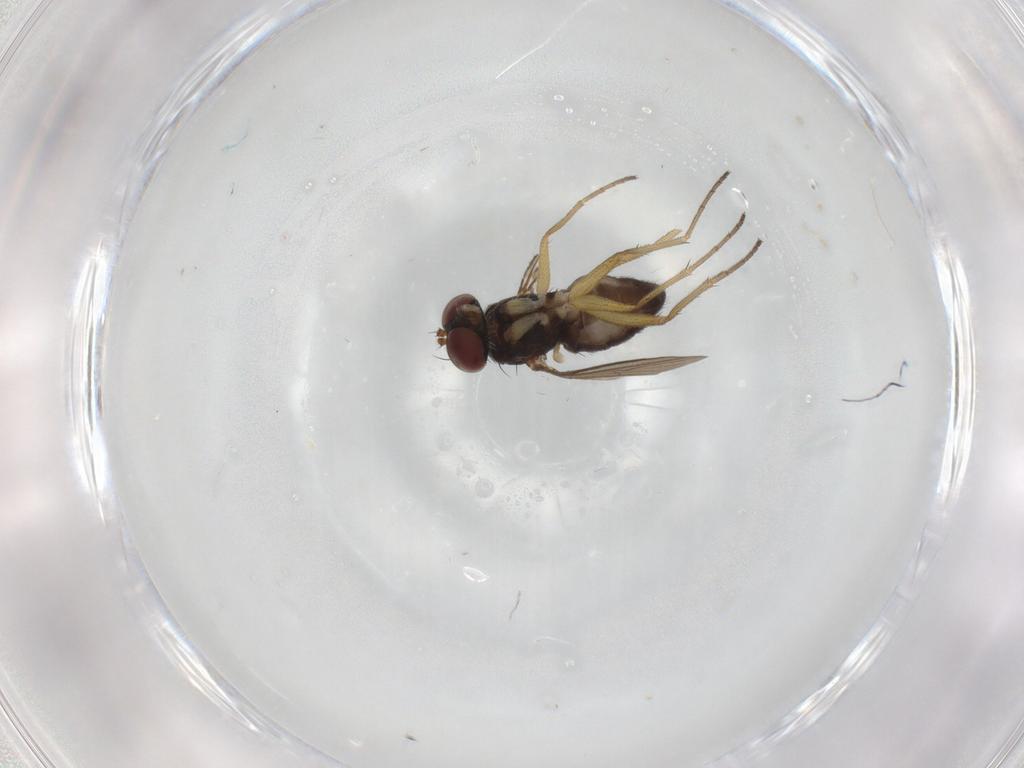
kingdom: Animalia
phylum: Arthropoda
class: Insecta
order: Diptera
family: Dolichopodidae
